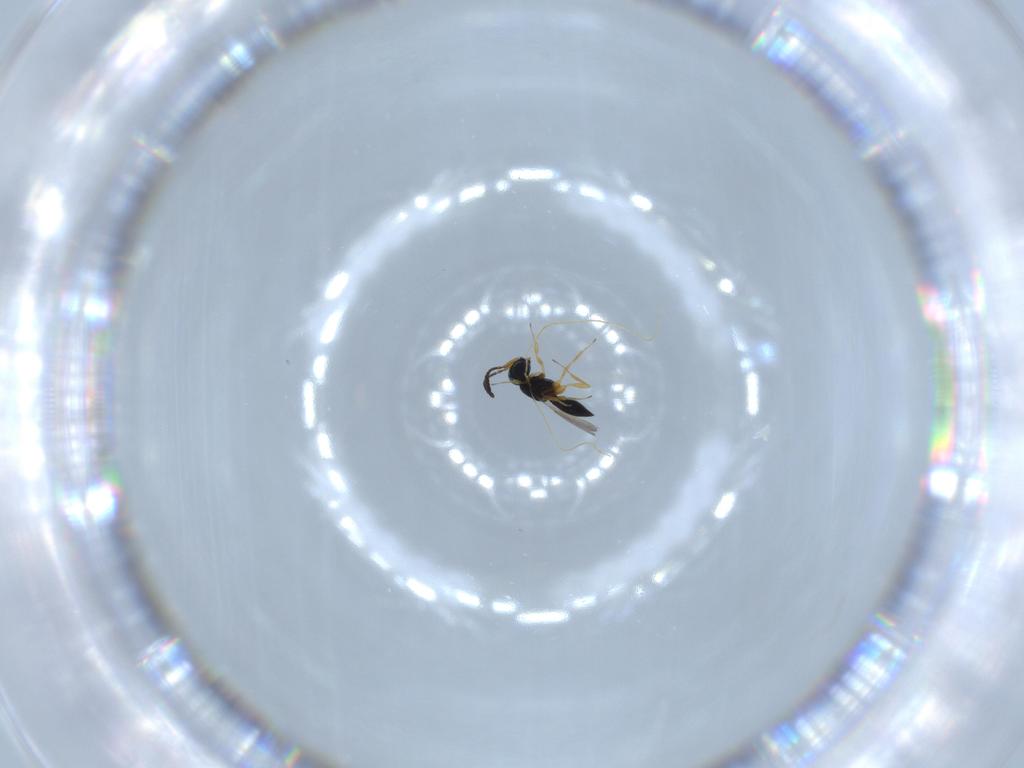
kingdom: Animalia
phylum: Arthropoda
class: Insecta
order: Hymenoptera
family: Scelionidae
